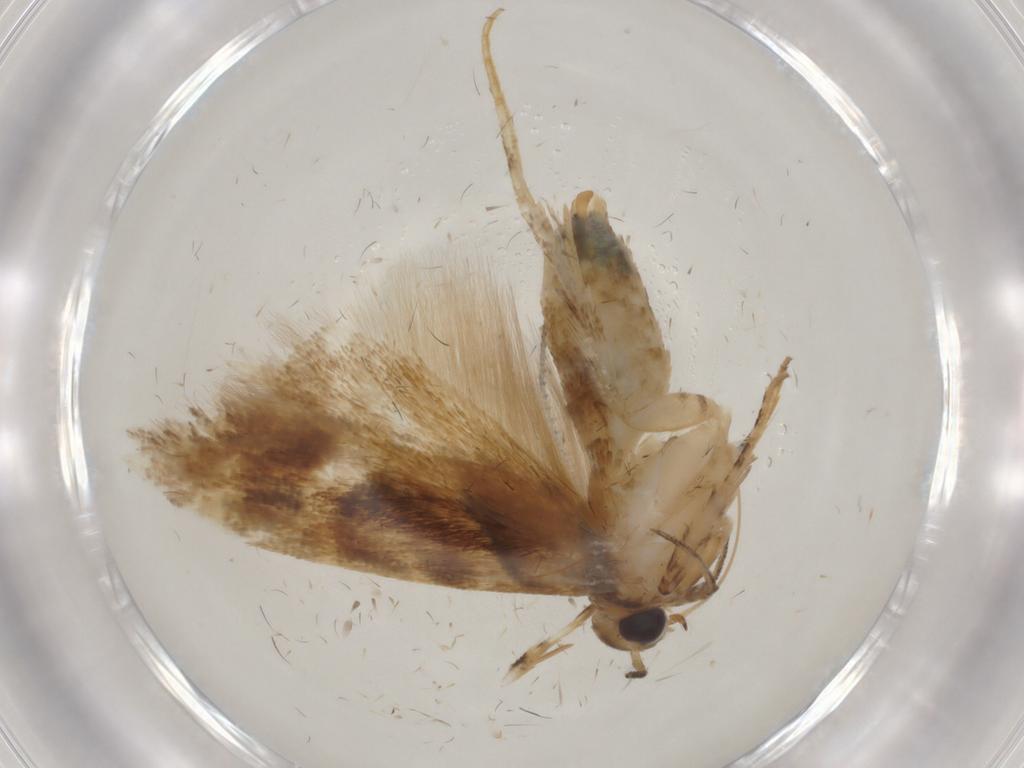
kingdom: Animalia
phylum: Arthropoda
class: Insecta
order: Lepidoptera
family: Gelechiidae
